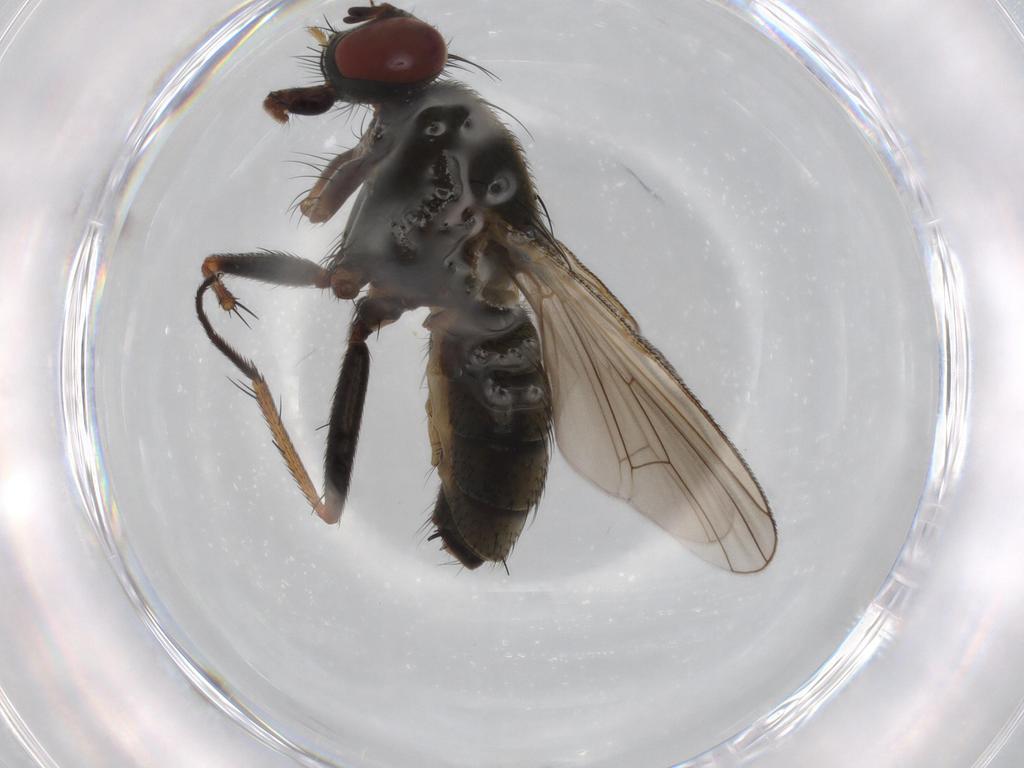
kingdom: Animalia
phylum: Arthropoda
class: Insecta
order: Diptera
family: Muscidae
